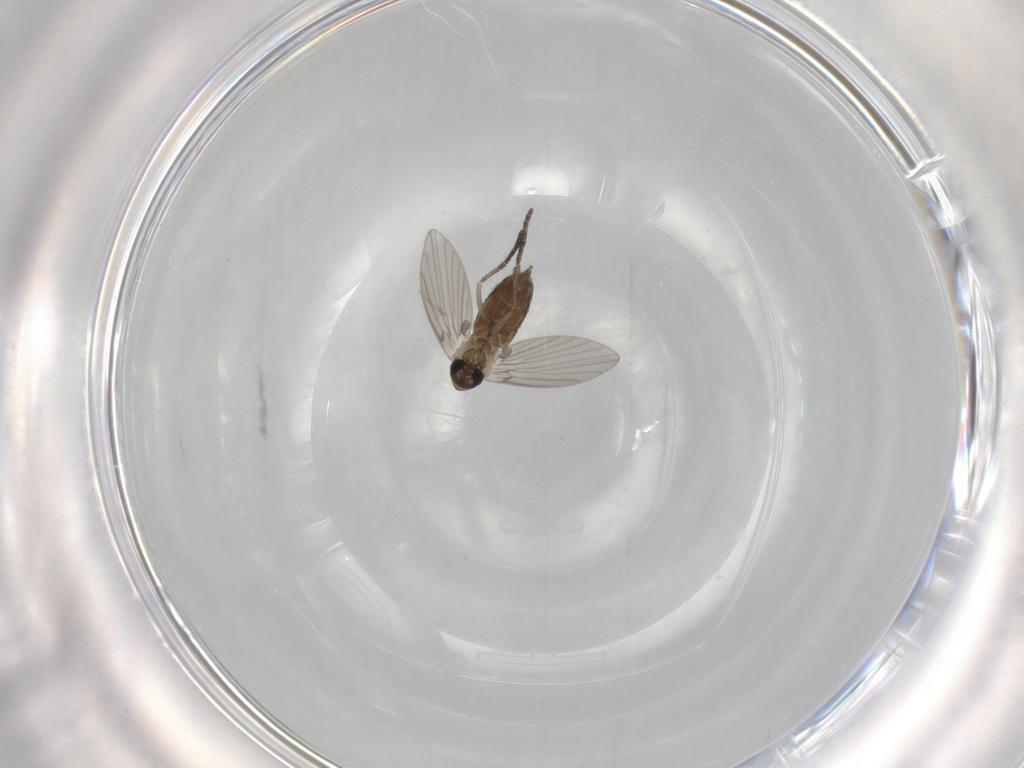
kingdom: Animalia
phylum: Arthropoda
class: Insecta
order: Diptera
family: Psychodidae
